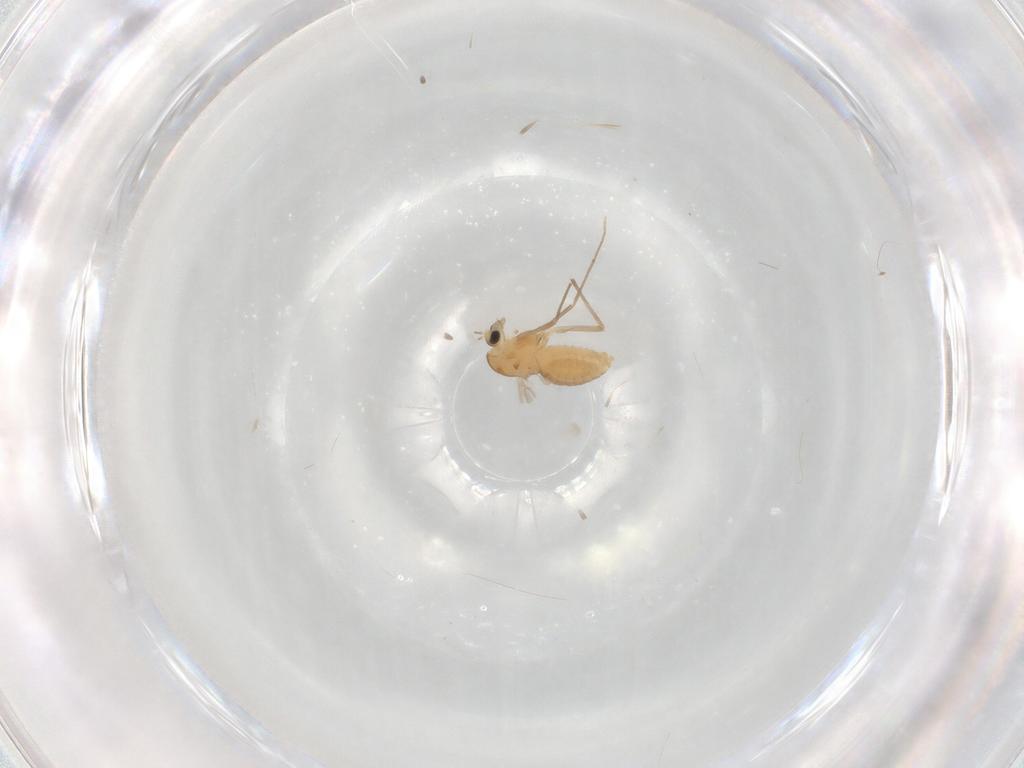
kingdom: Animalia
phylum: Arthropoda
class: Insecta
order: Diptera
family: Chironomidae
